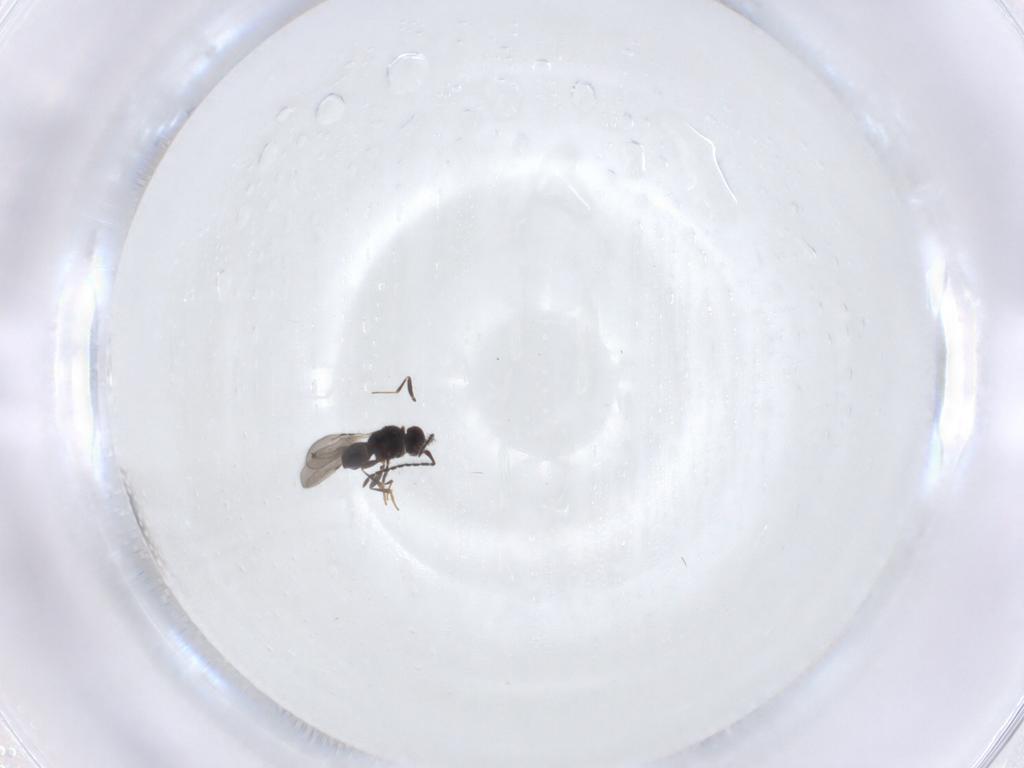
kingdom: Animalia
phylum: Arthropoda
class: Insecta
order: Hymenoptera
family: Ceraphronidae
